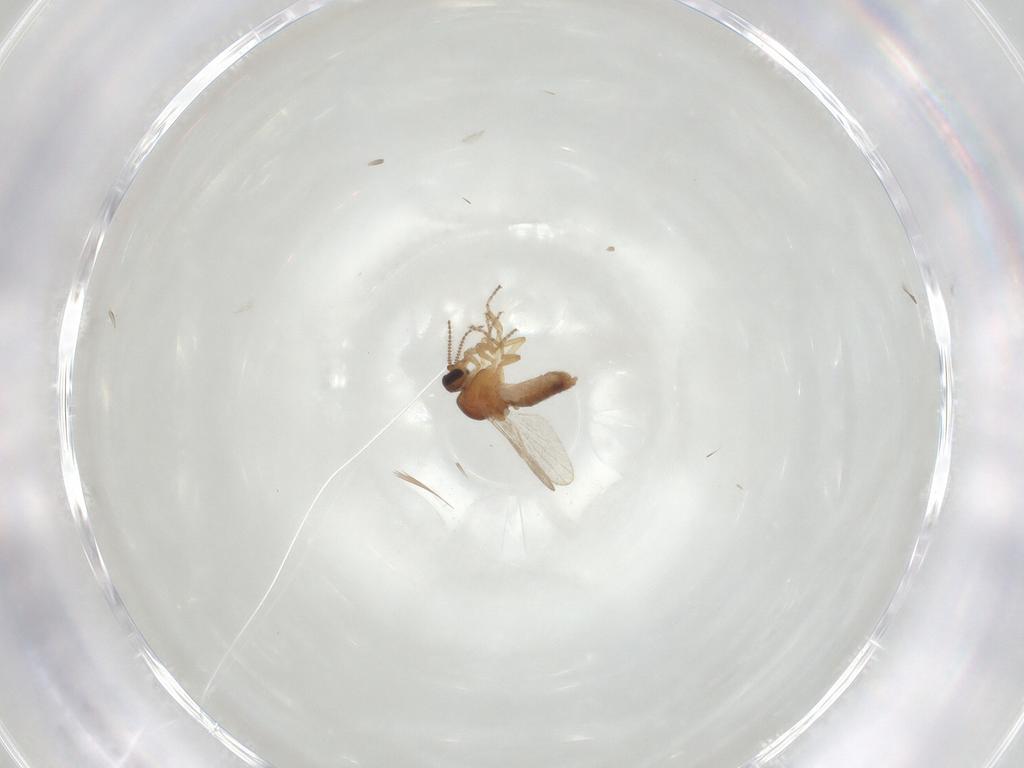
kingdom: Animalia
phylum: Arthropoda
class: Insecta
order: Diptera
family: Ceratopogonidae
